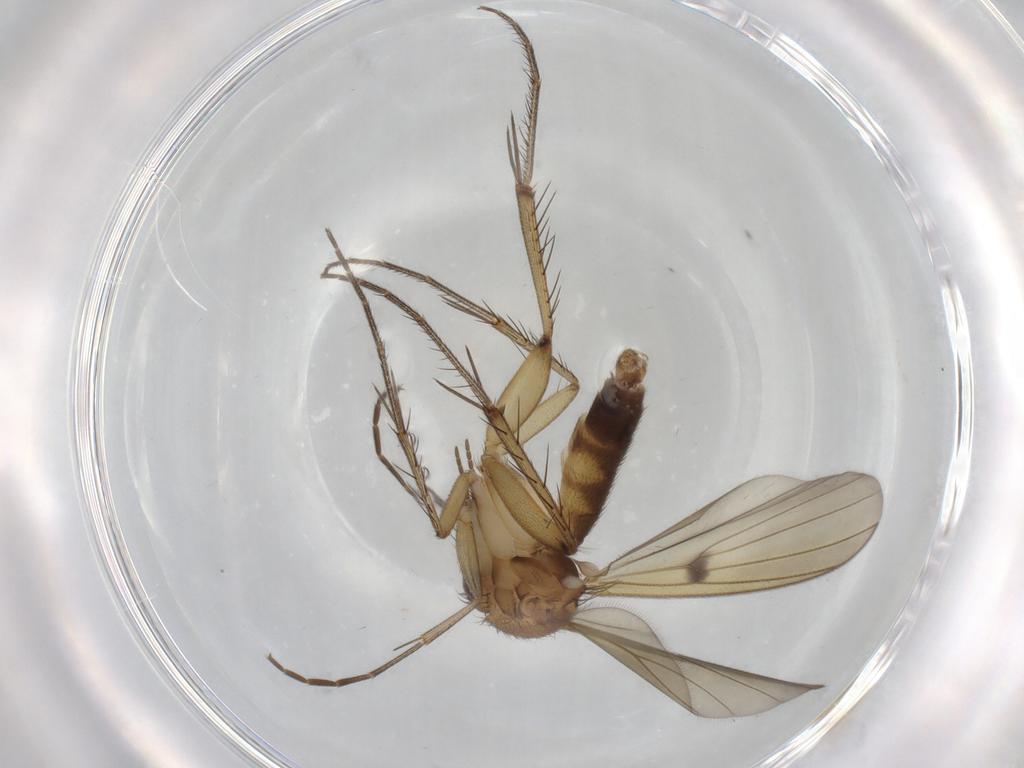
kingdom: Animalia
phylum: Arthropoda
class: Insecta
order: Diptera
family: Mycetophilidae
